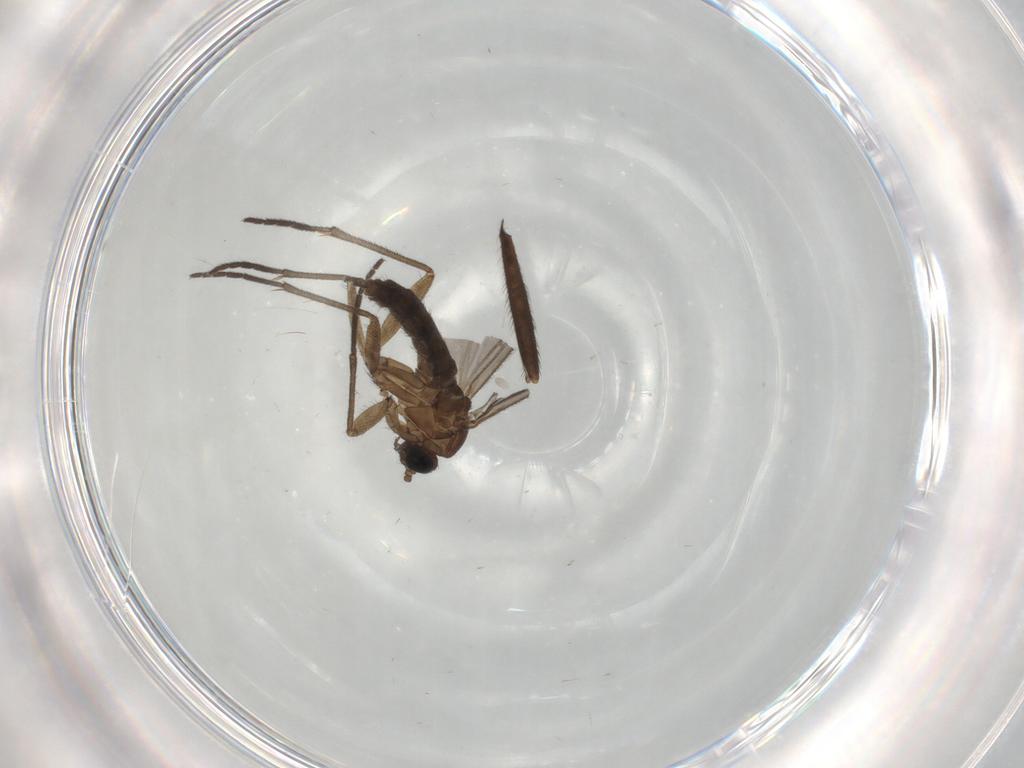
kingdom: Animalia
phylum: Arthropoda
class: Insecta
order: Diptera
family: Sciaridae
